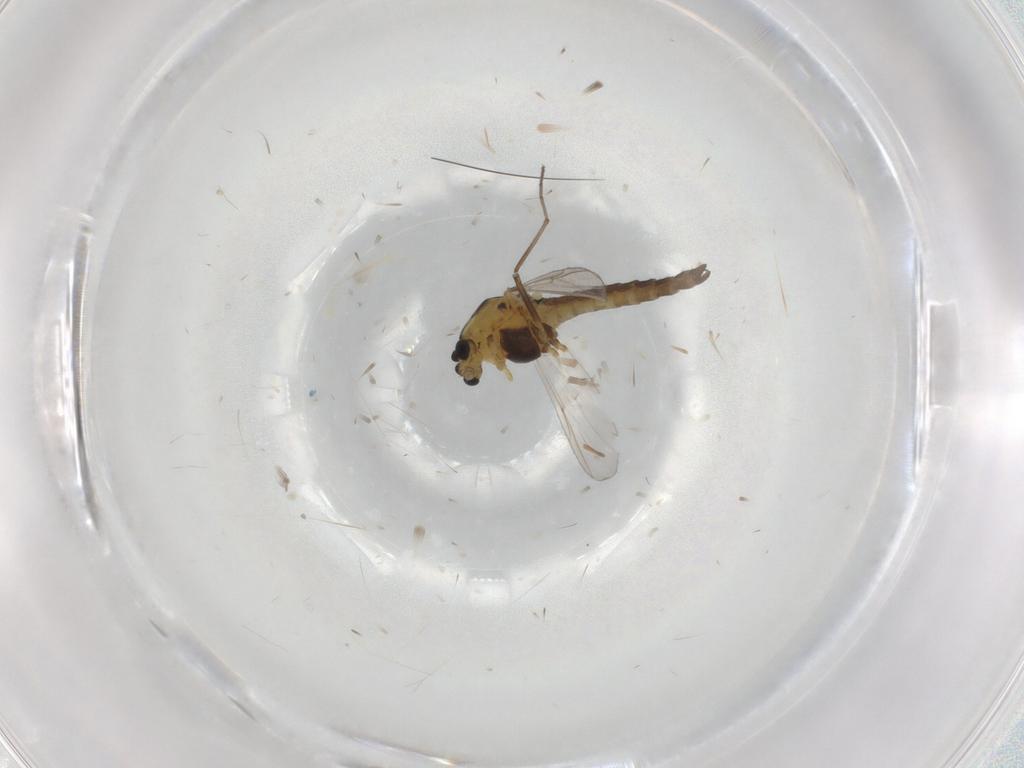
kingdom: Animalia
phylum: Arthropoda
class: Insecta
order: Diptera
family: Chironomidae
